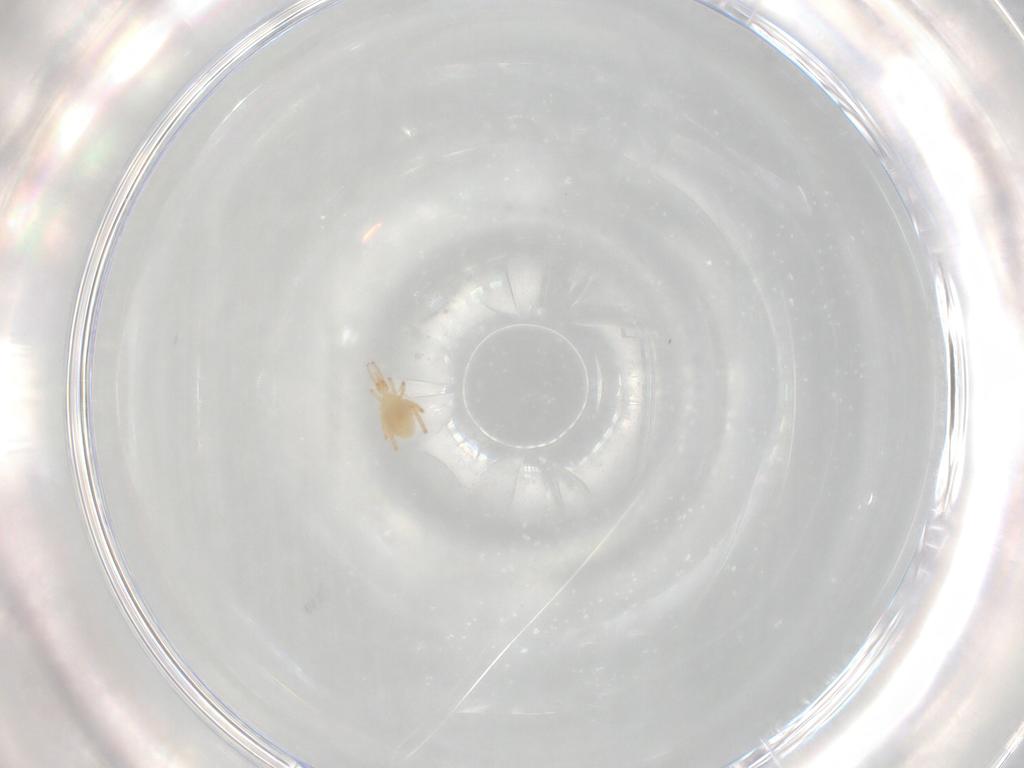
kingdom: Animalia
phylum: Arthropoda
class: Arachnida
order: Trombidiformes
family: Cunaxidae
